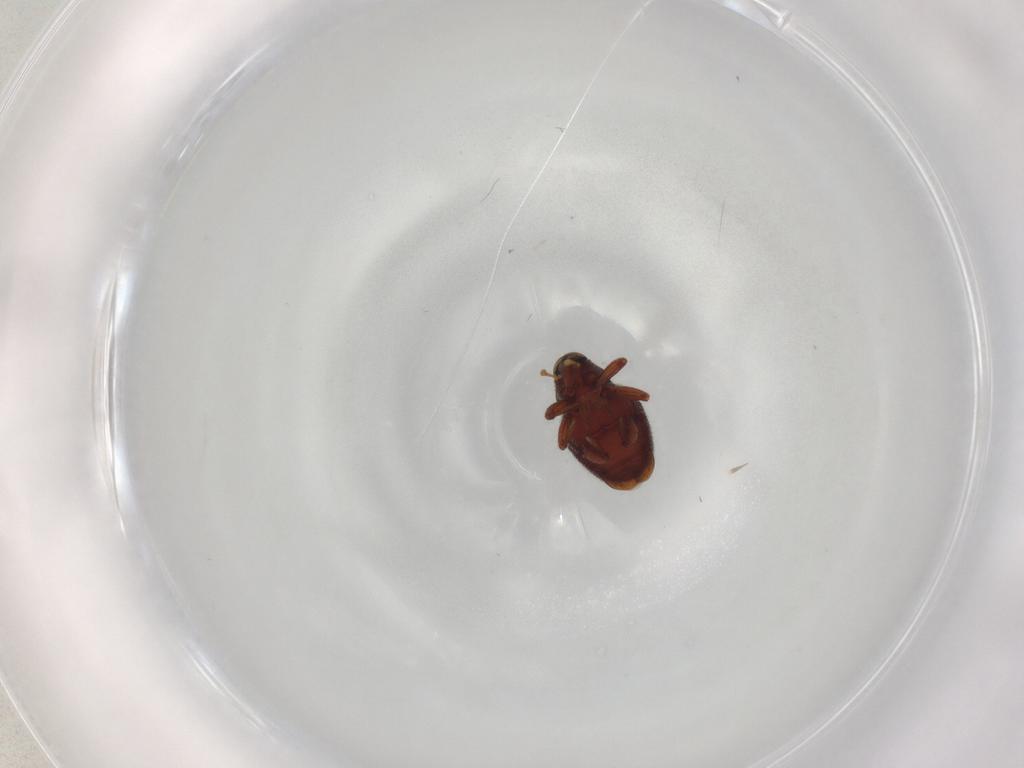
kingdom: Animalia
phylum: Arthropoda
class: Insecta
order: Coleoptera
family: Curculionidae
